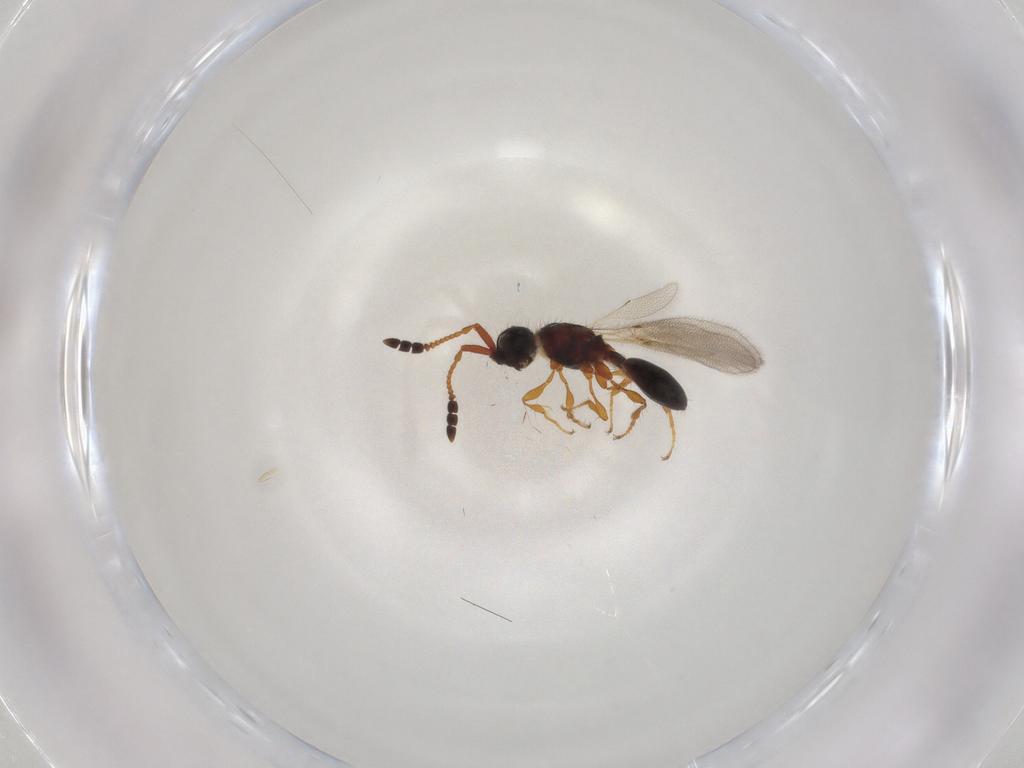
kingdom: Animalia
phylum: Arthropoda
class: Insecta
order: Hymenoptera
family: Diapriidae
